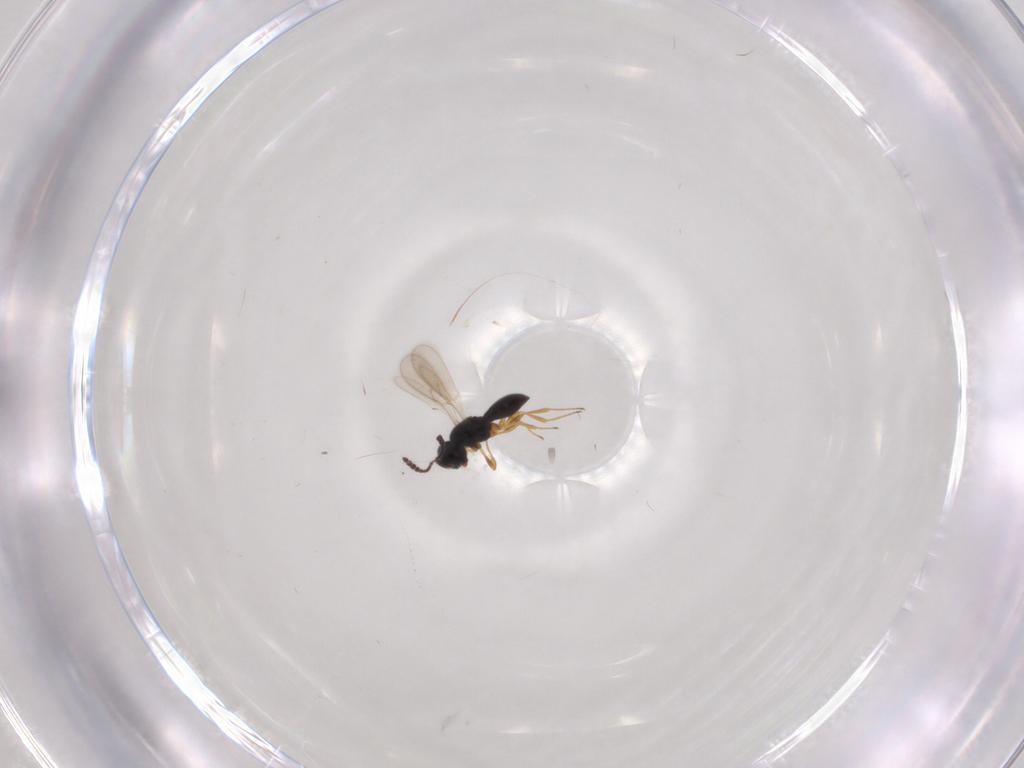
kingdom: Animalia
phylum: Arthropoda
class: Insecta
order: Hymenoptera
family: Scelionidae
